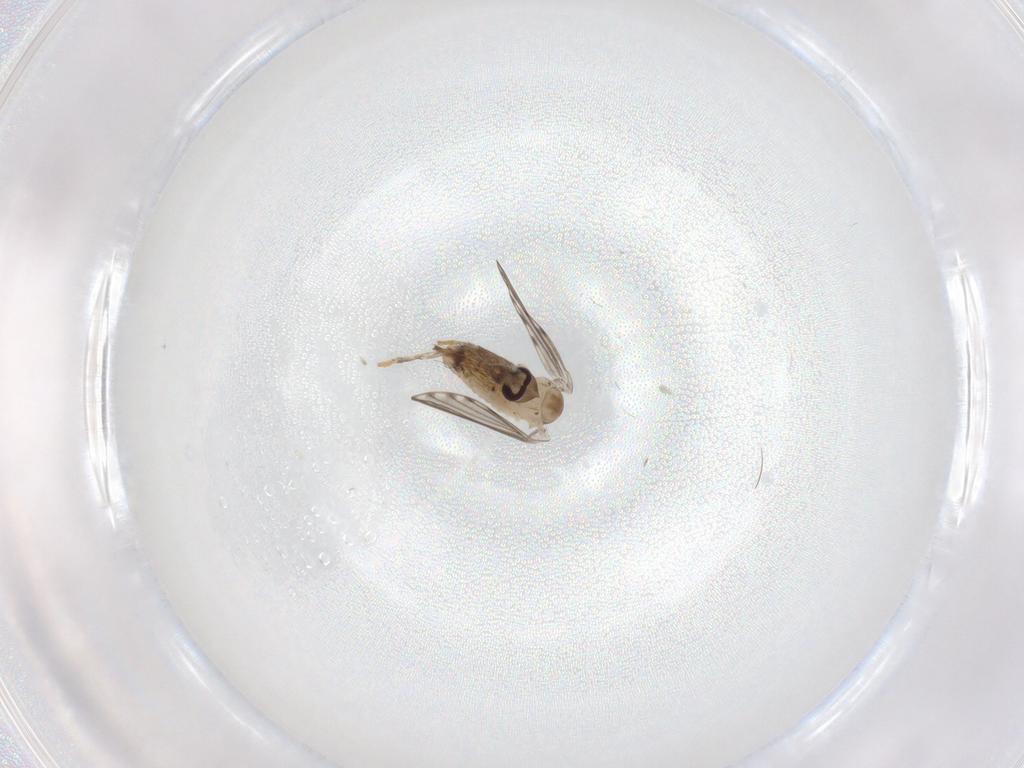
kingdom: Animalia
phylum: Arthropoda
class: Insecta
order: Diptera
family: Psychodidae
